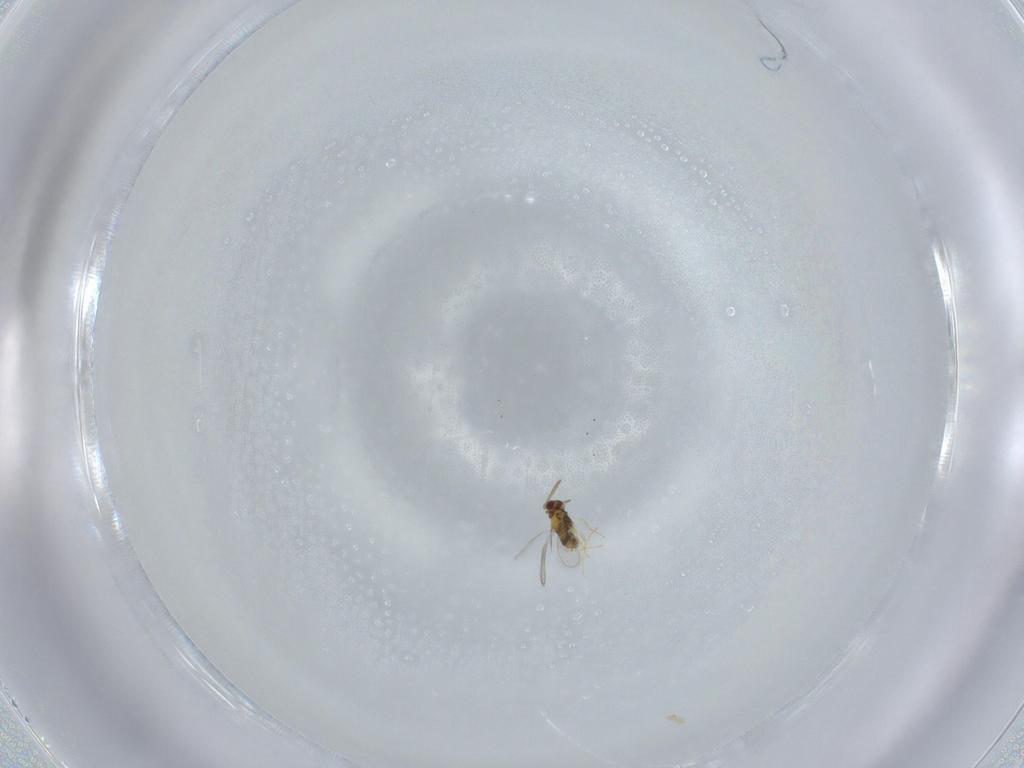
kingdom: Animalia
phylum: Arthropoda
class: Insecta
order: Hymenoptera
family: Aphelinidae
